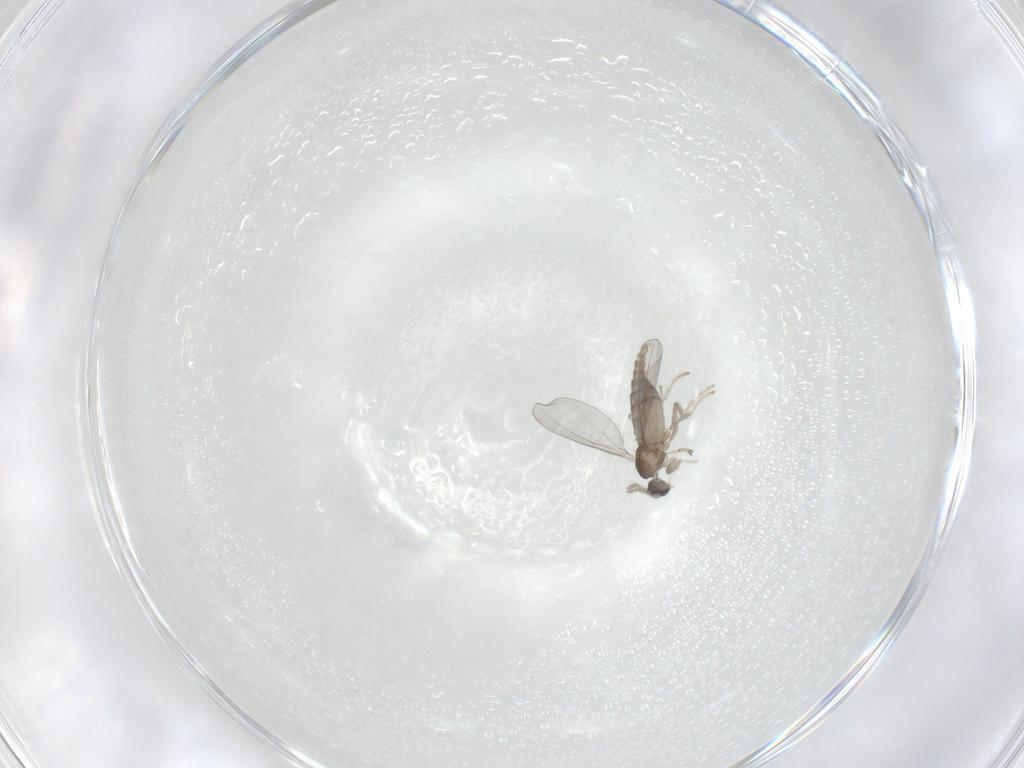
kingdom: Animalia
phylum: Arthropoda
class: Insecta
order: Diptera
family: Cecidomyiidae
